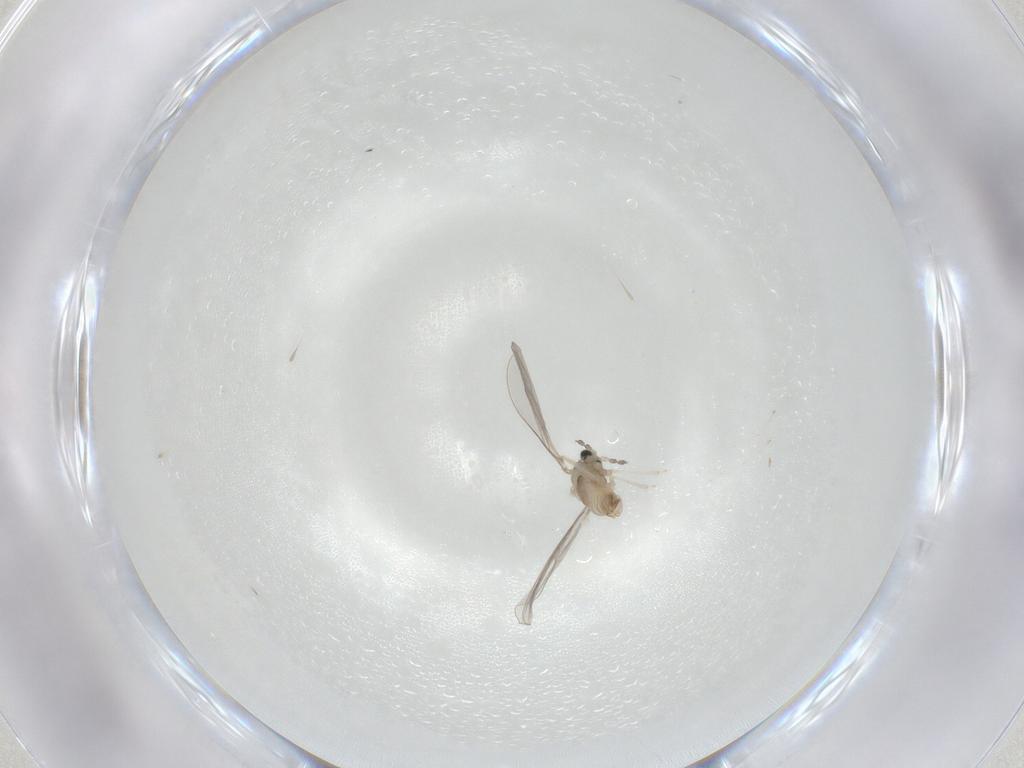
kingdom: Animalia
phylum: Arthropoda
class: Insecta
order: Diptera
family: Cecidomyiidae
